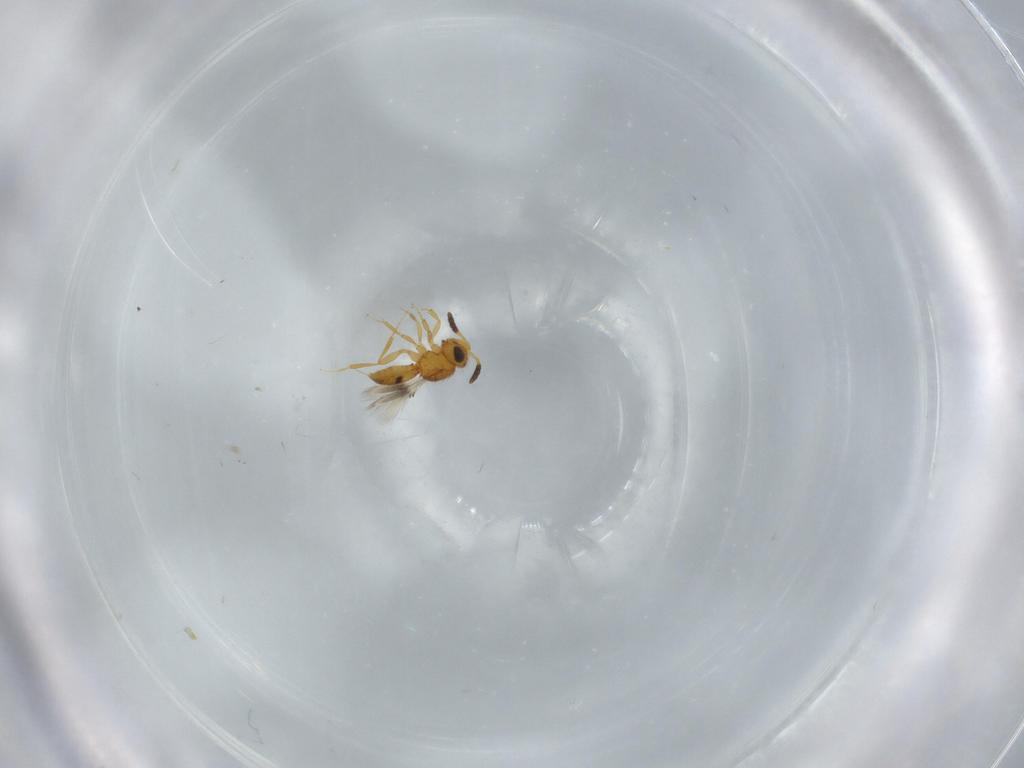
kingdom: Animalia
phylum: Arthropoda
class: Insecta
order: Hymenoptera
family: Scelionidae
